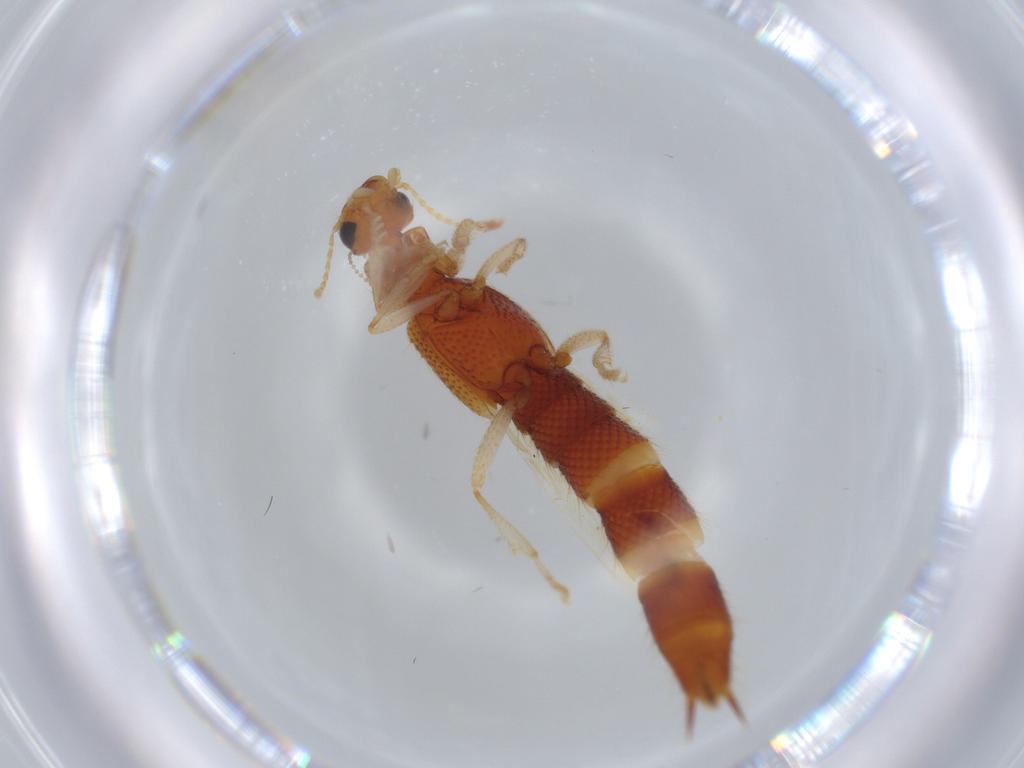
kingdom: Animalia
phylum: Arthropoda
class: Insecta
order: Coleoptera
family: Staphylinidae
